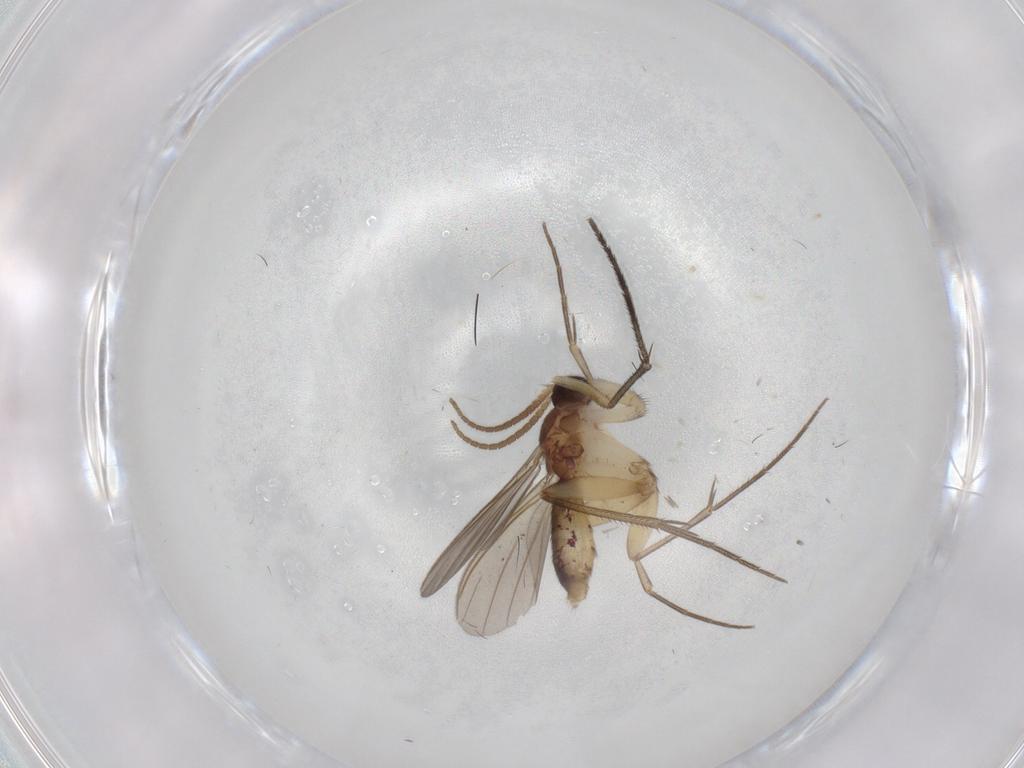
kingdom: Animalia
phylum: Arthropoda
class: Insecta
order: Diptera
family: Mycetophilidae
